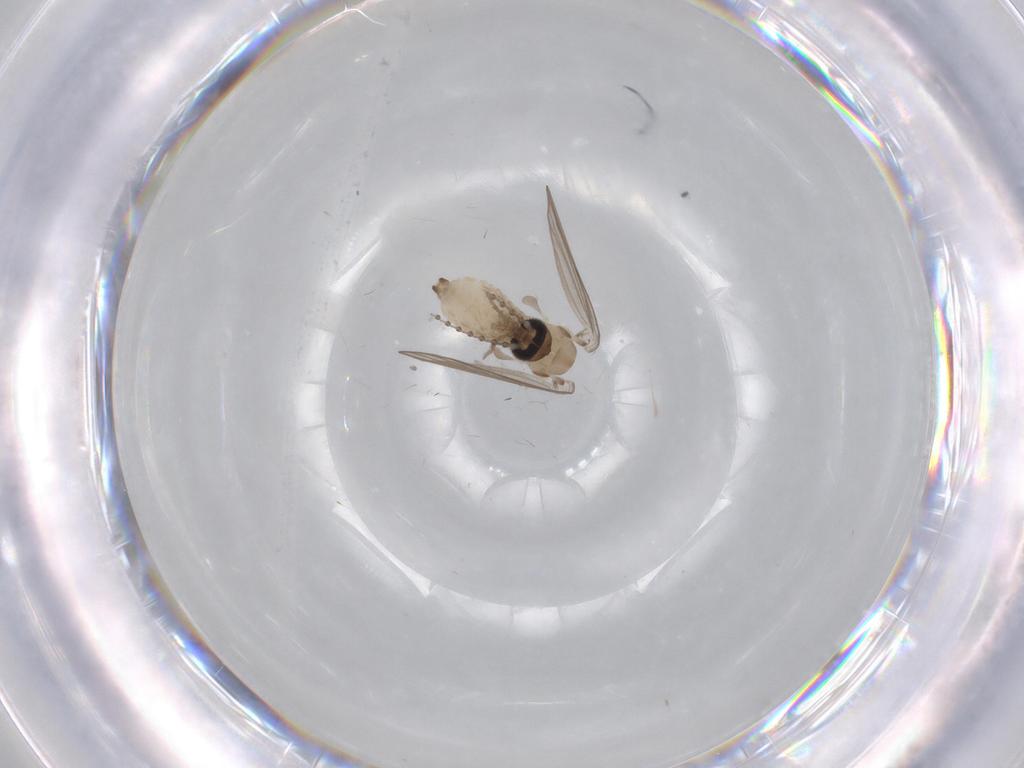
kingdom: Animalia
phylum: Arthropoda
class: Insecta
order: Diptera
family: Psychodidae
